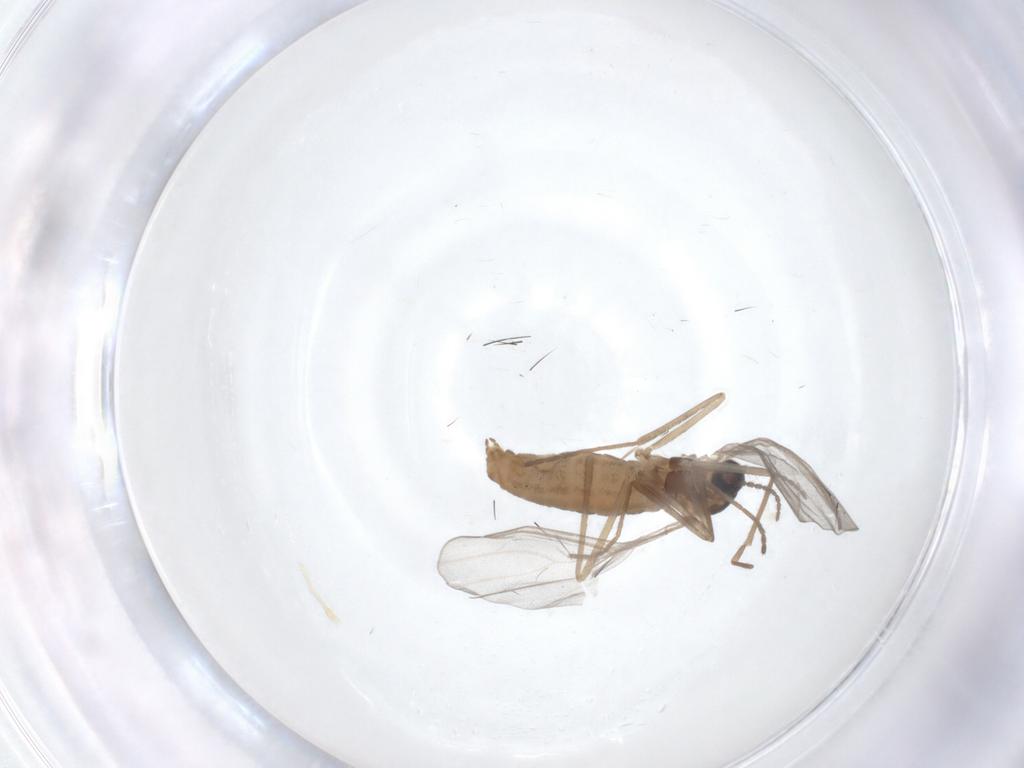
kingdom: Animalia
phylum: Arthropoda
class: Insecta
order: Diptera
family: Cecidomyiidae
